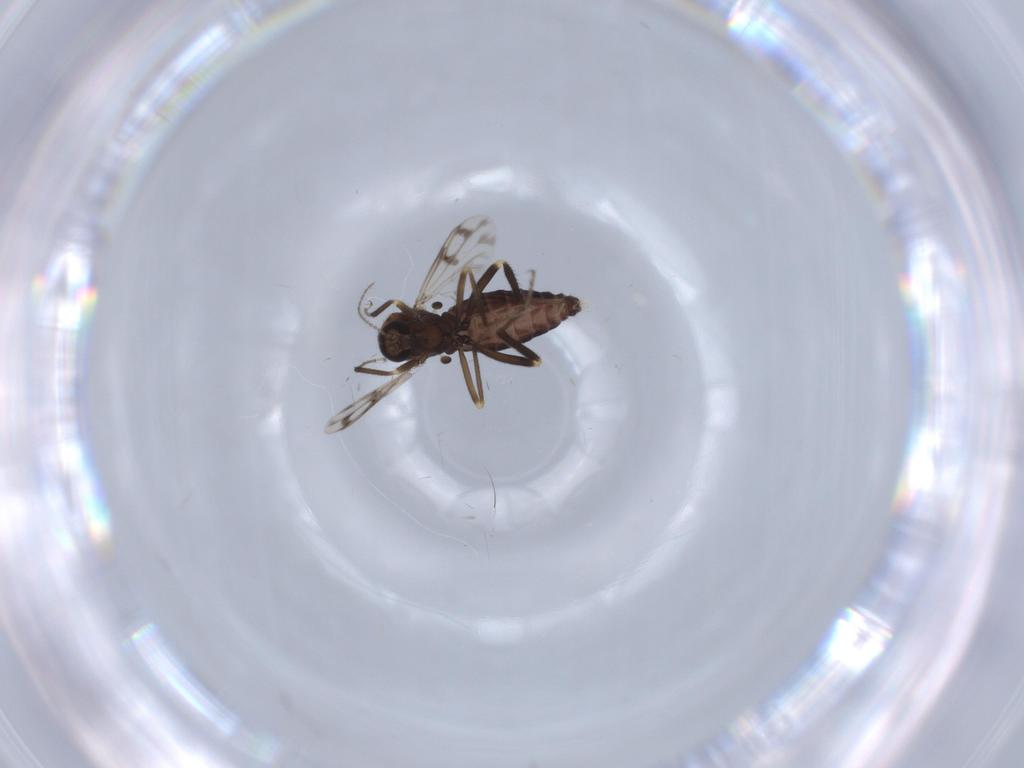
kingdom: Animalia
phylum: Arthropoda
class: Insecta
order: Diptera
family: Ceratopogonidae
